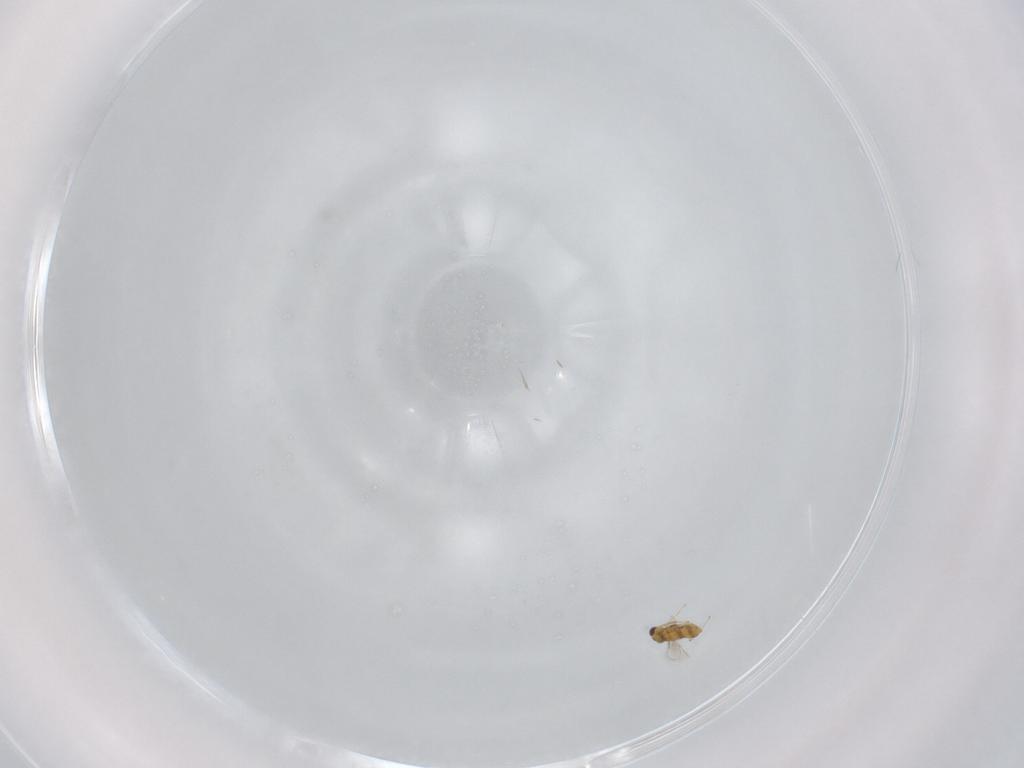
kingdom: Animalia
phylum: Arthropoda
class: Insecta
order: Hymenoptera
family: Aphelinidae
